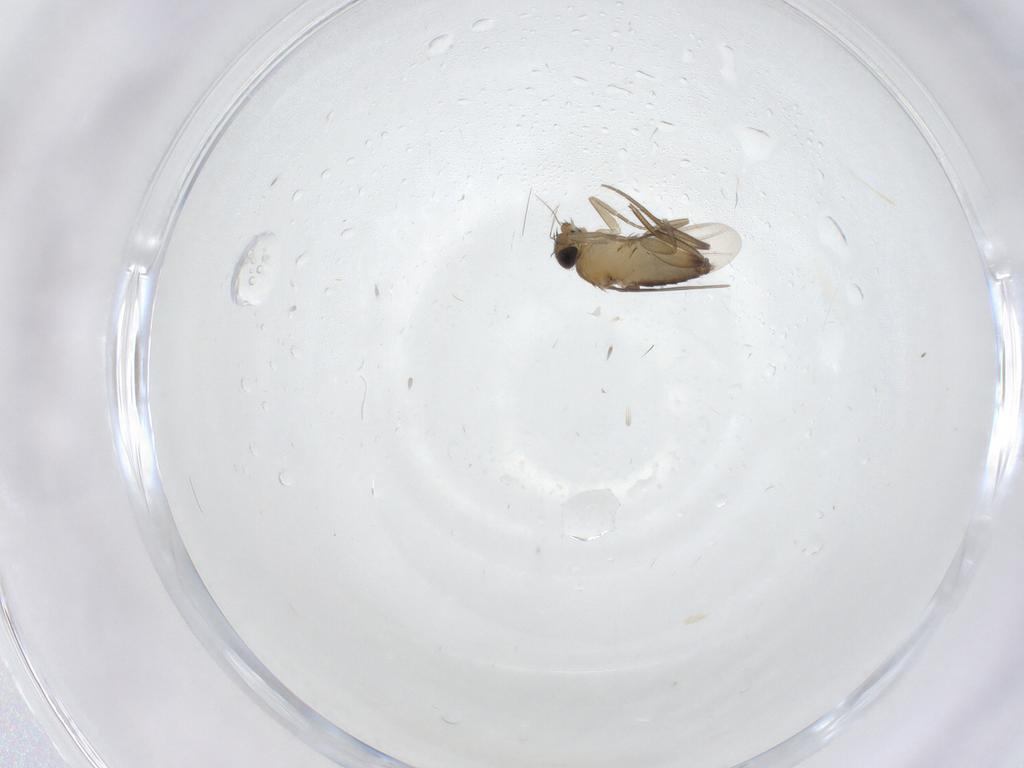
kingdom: Animalia
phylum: Arthropoda
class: Insecta
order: Diptera
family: Phoridae
